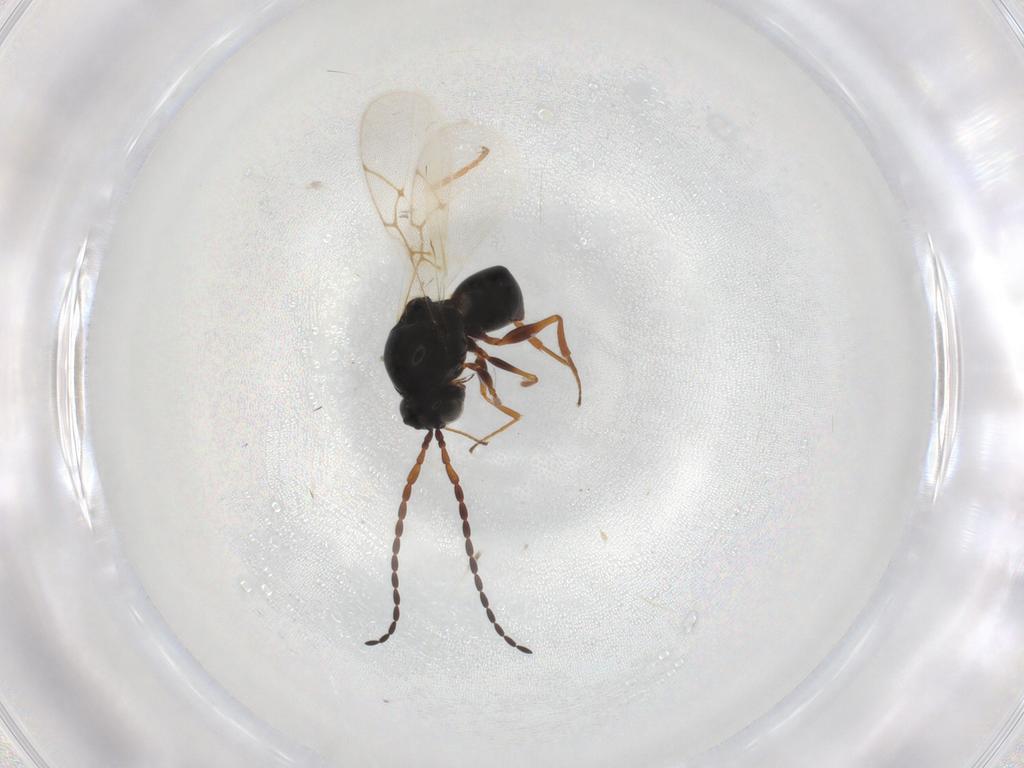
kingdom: Animalia
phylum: Arthropoda
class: Insecta
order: Hymenoptera
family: Figitidae
